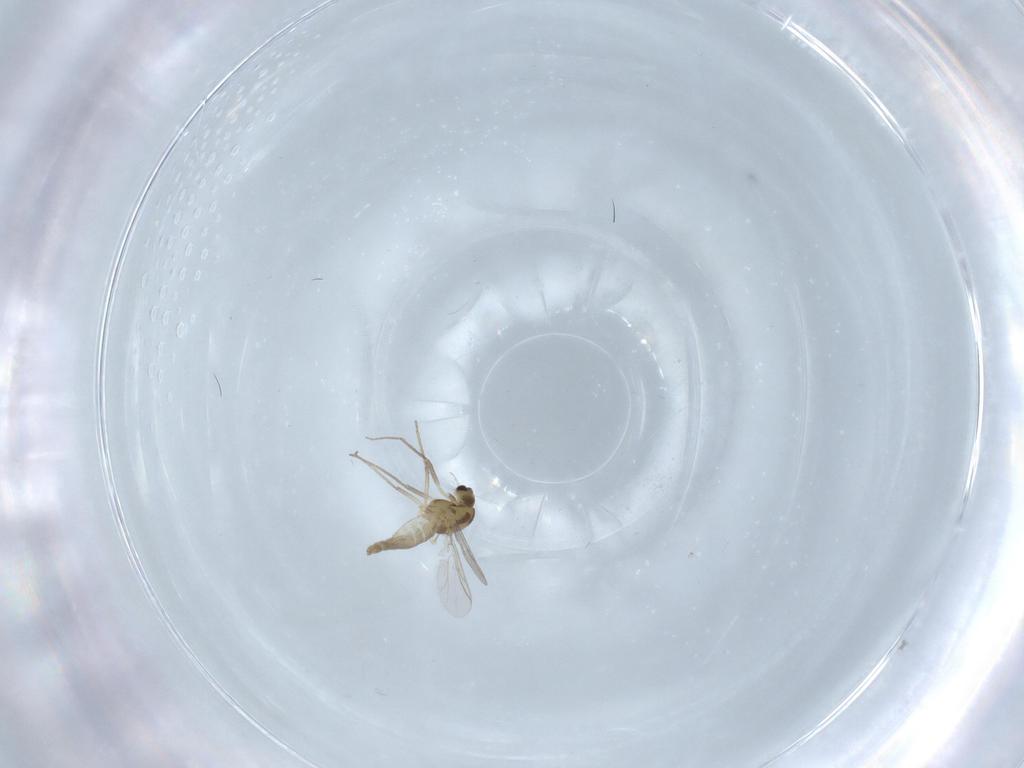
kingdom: Animalia
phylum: Arthropoda
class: Insecta
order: Diptera
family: Chironomidae
